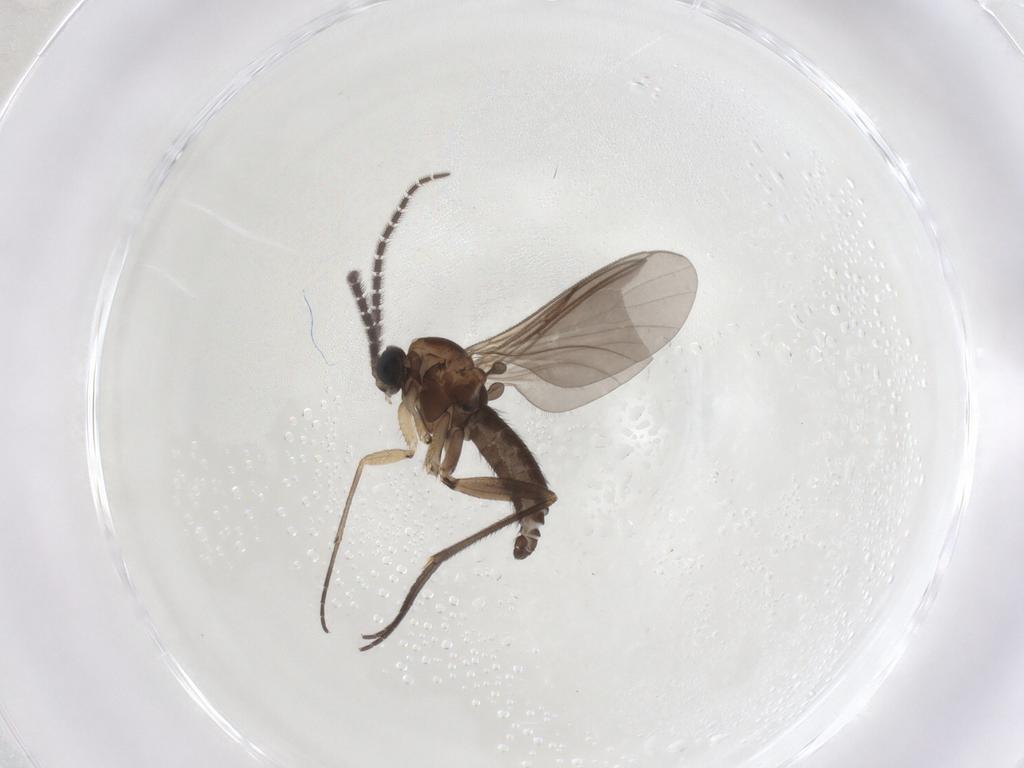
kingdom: Animalia
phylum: Arthropoda
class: Insecta
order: Diptera
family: Sciaridae
